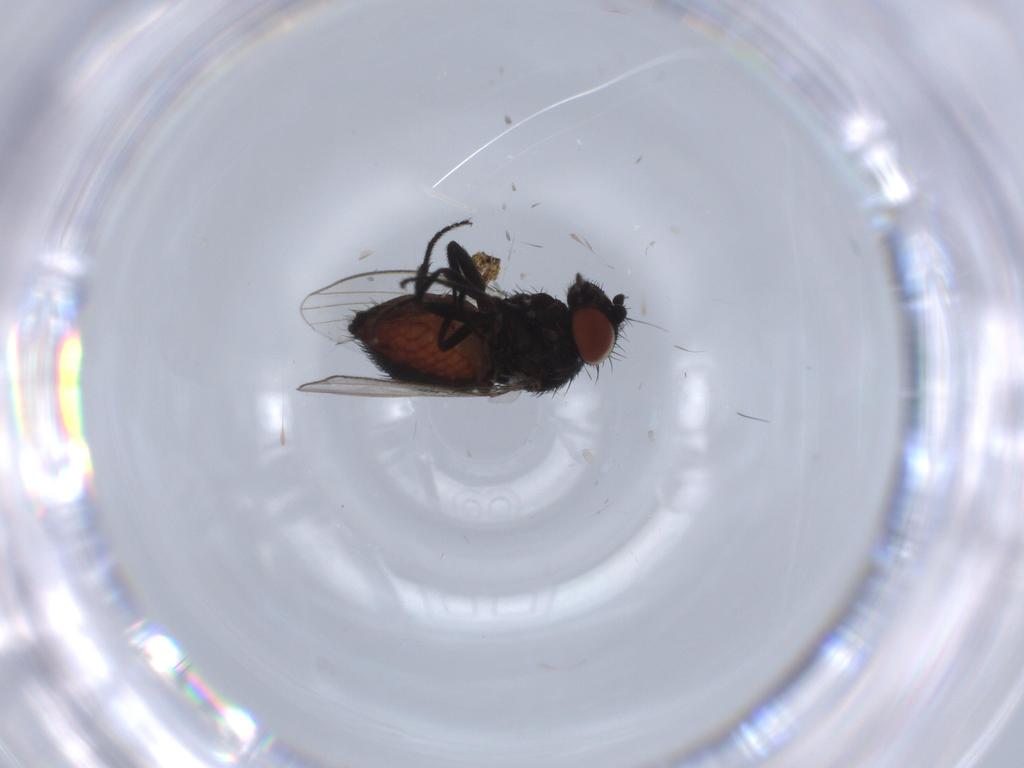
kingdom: Animalia
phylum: Arthropoda
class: Insecta
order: Diptera
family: Milichiidae
